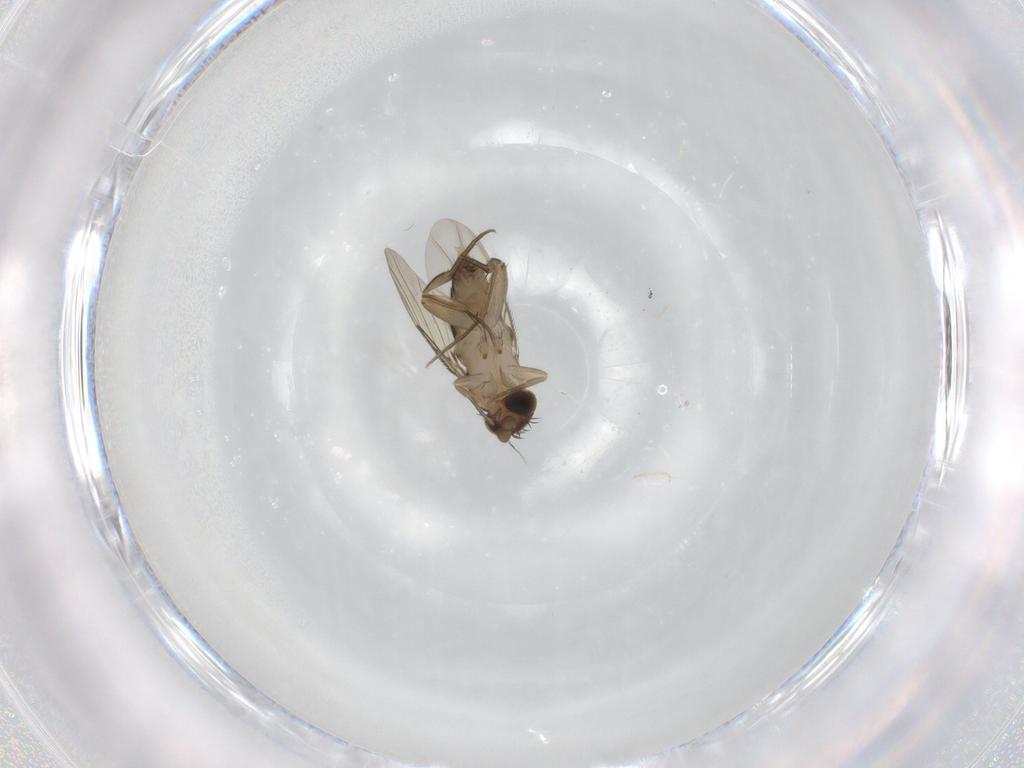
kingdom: Animalia
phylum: Arthropoda
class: Insecta
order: Diptera
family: Phoridae
